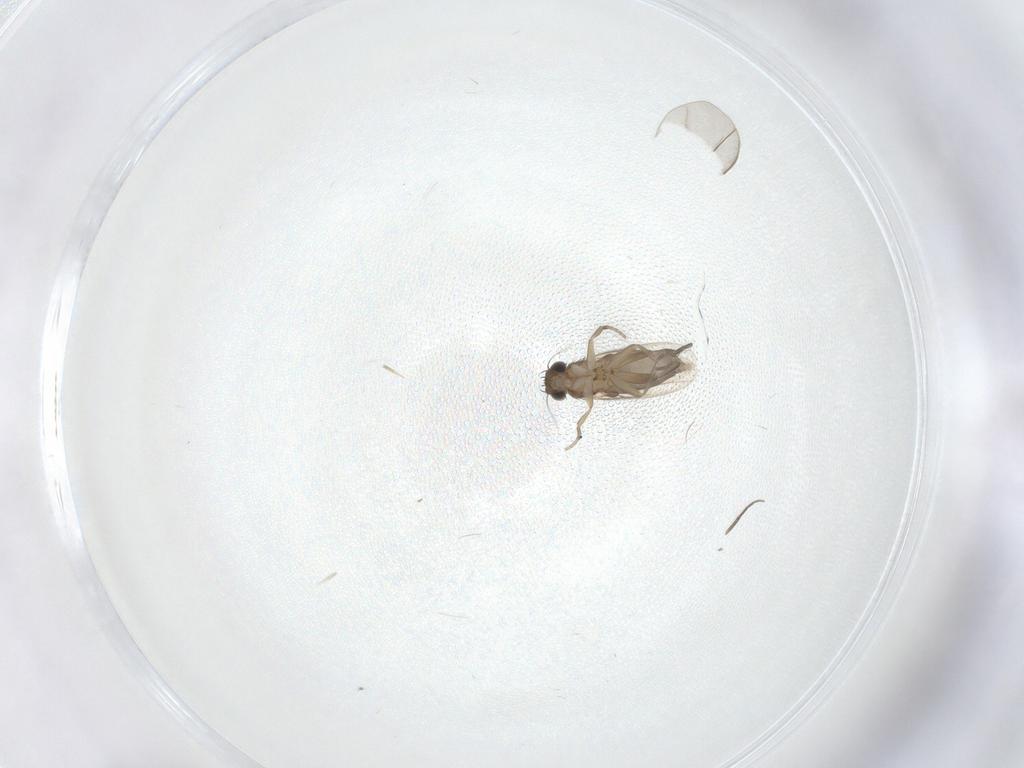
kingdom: Animalia
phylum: Arthropoda
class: Insecta
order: Diptera
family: Phoridae
